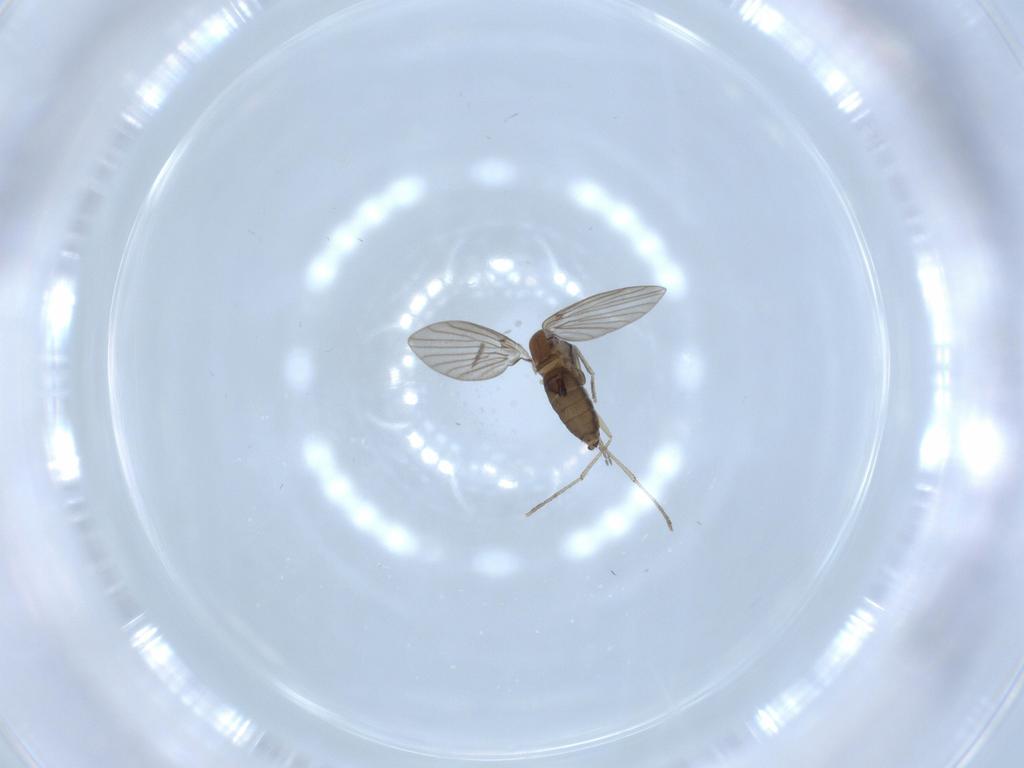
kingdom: Animalia
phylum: Arthropoda
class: Insecta
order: Diptera
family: Psychodidae
